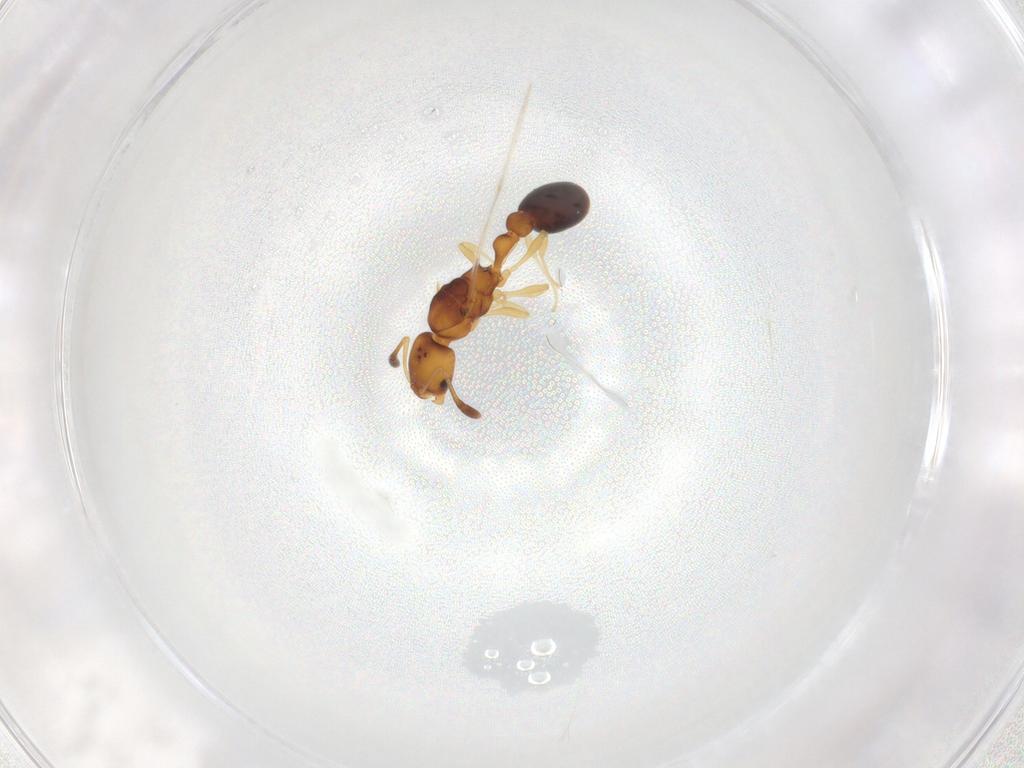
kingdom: Animalia
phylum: Arthropoda
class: Insecta
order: Hymenoptera
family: Formicidae
